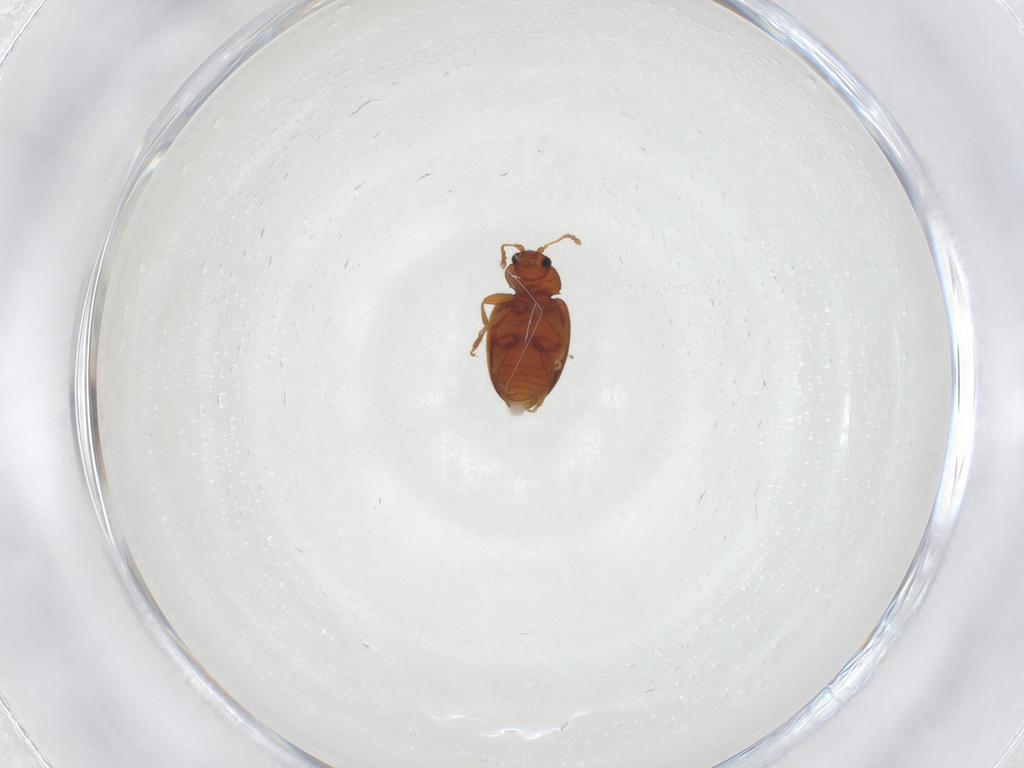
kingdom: Animalia
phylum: Arthropoda
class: Insecta
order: Coleoptera
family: Latridiidae
